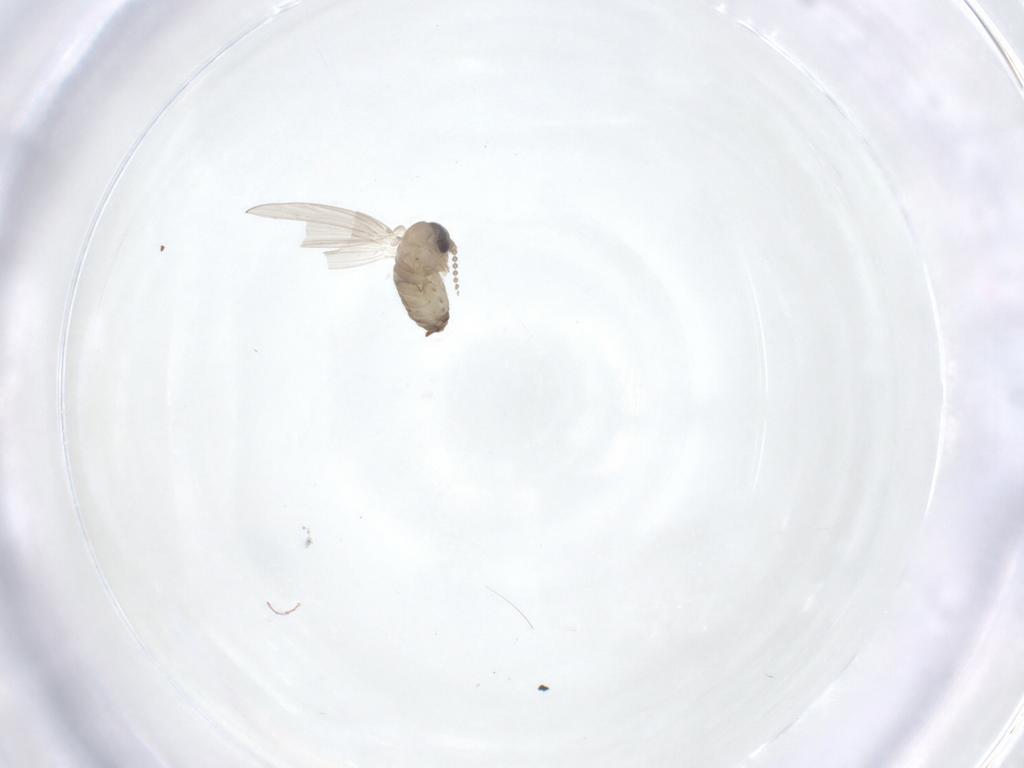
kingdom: Animalia
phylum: Arthropoda
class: Insecta
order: Diptera
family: Psychodidae
